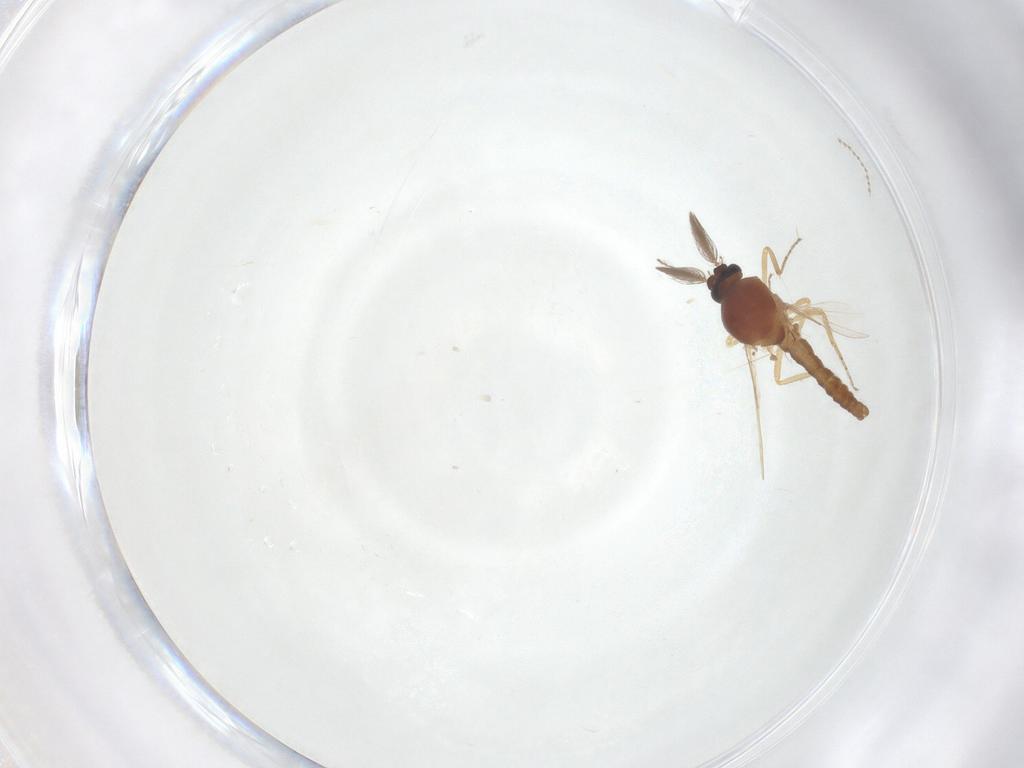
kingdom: Animalia
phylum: Arthropoda
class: Insecta
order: Diptera
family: Ceratopogonidae
